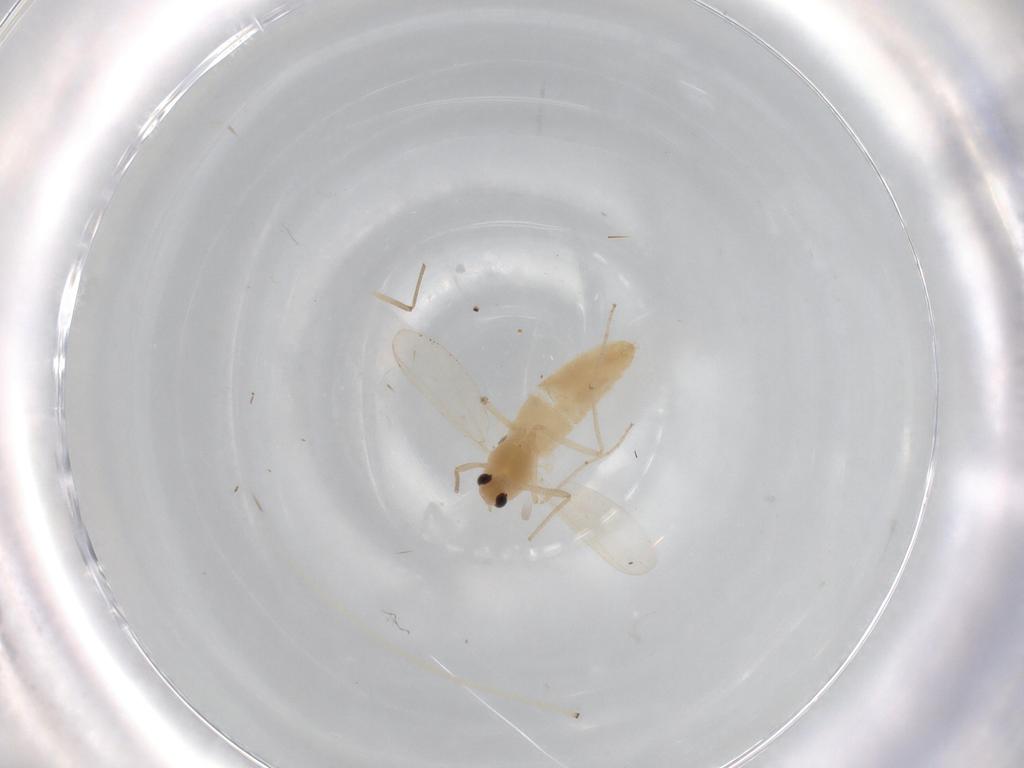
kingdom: Animalia
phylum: Arthropoda
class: Insecta
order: Diptera
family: Chironomidae
